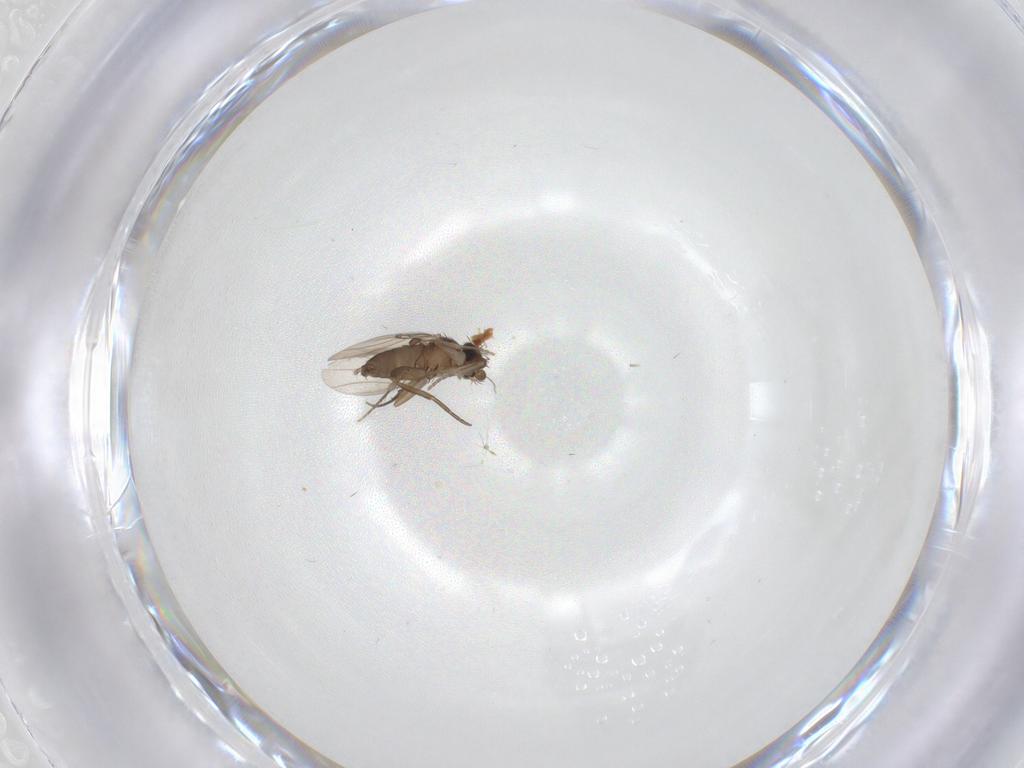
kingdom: Animalia
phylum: Arthropoda
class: Insecta
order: Diptera
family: Phoridae
